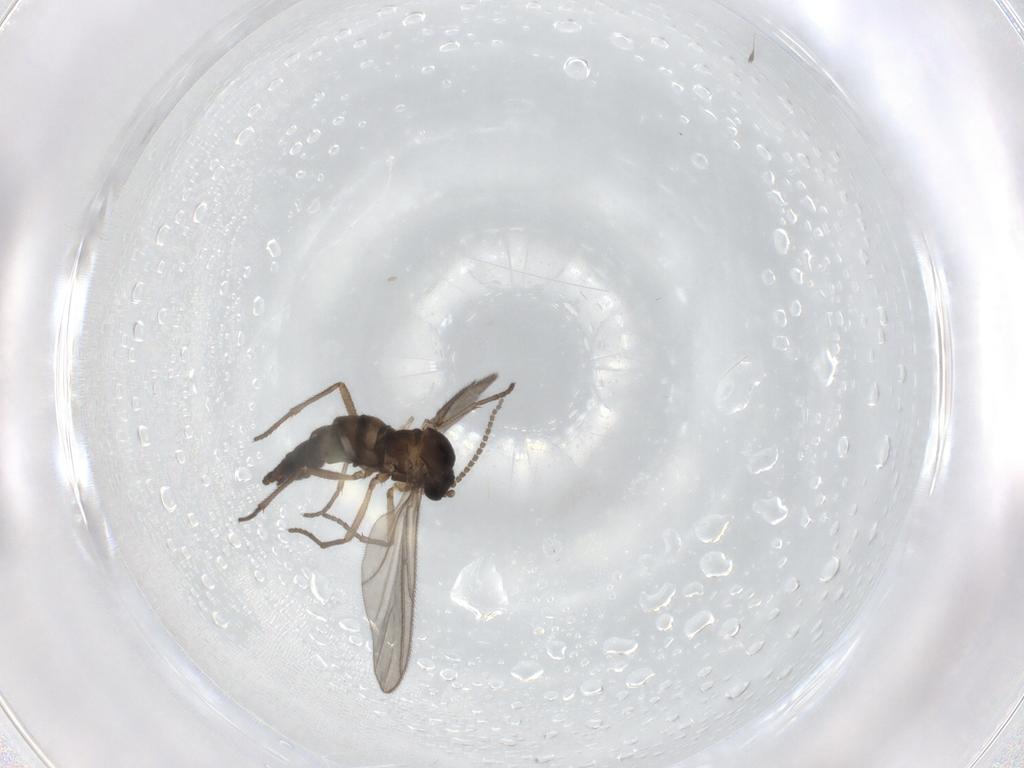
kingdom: Animalia
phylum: Arthropoda
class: Insecta
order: Diptera
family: Sciaridae
